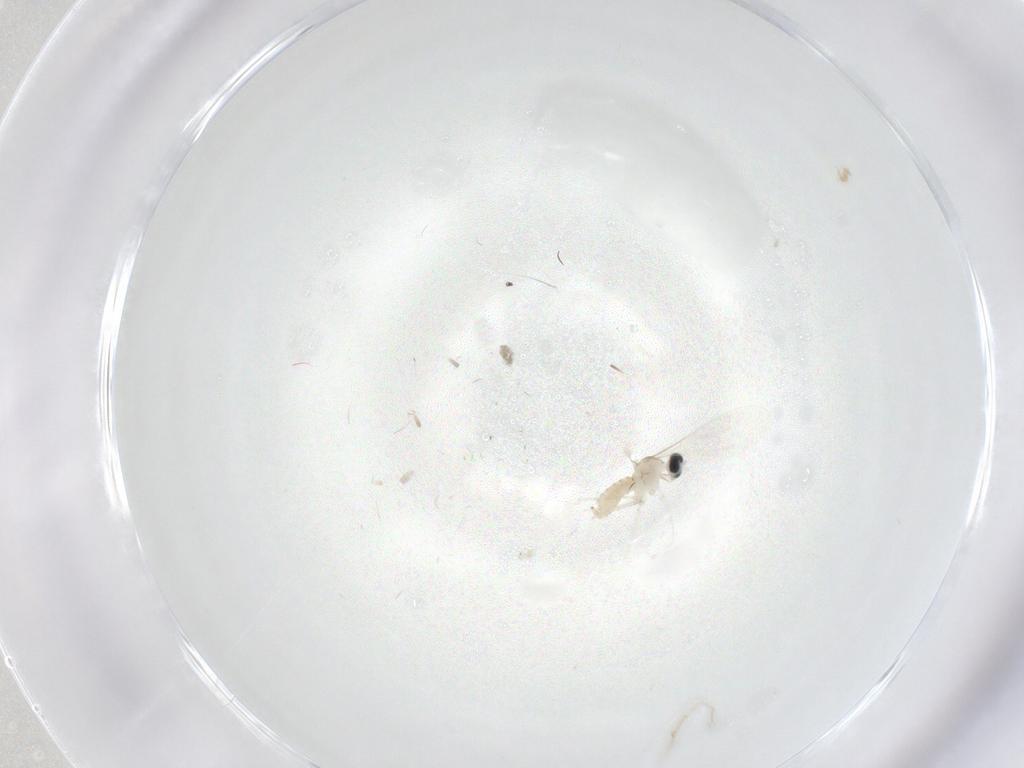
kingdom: Animalia
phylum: Arthropoda
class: Insecta
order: Diptera
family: Cecidomyiidae
